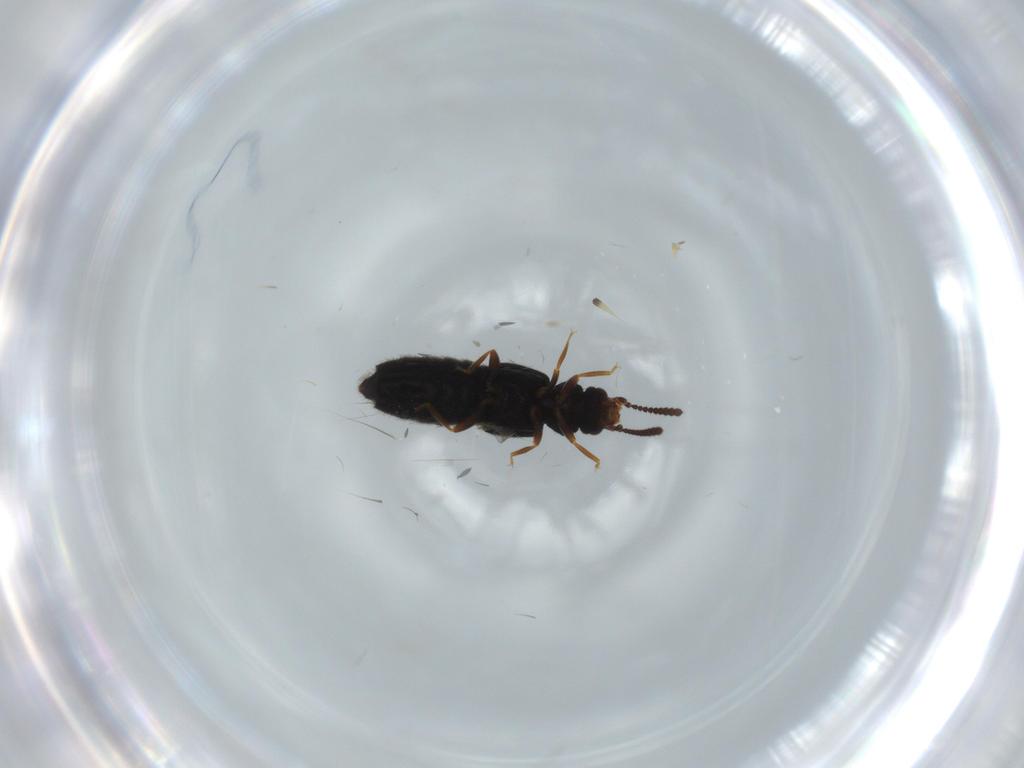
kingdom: Animalia
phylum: Arthropoda
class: Insecta
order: Coleoptera
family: Staphylinidae
